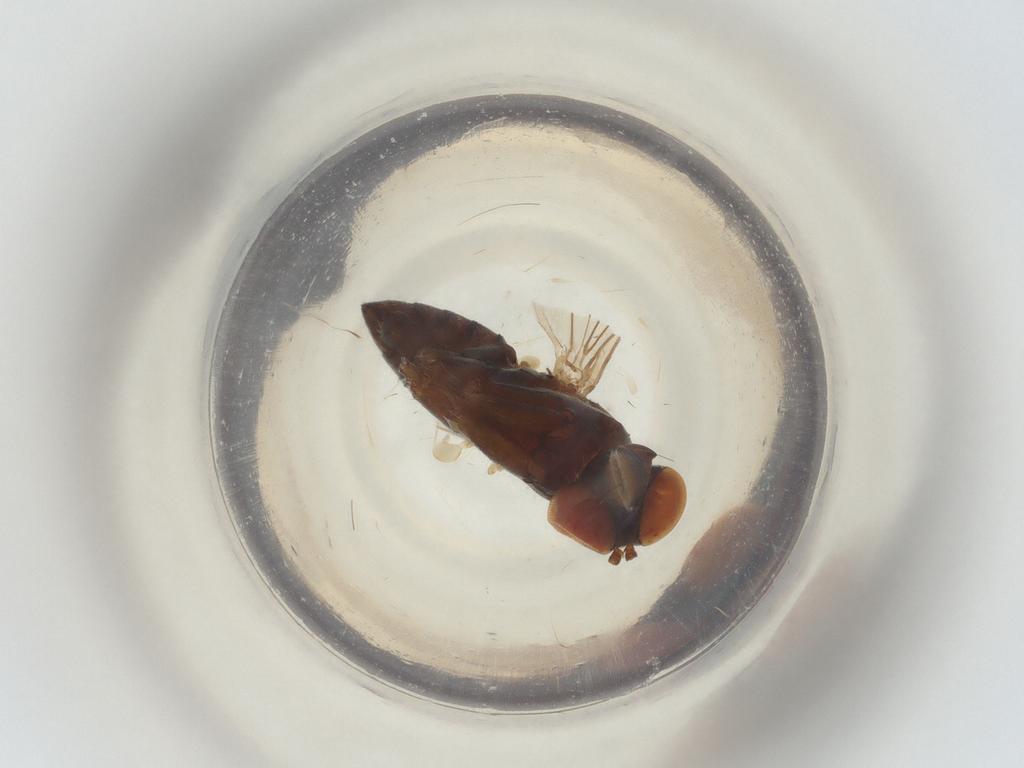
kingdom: Animalia
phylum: Arthropoda
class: Insecta
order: Diptera
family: Dolichopodidae
